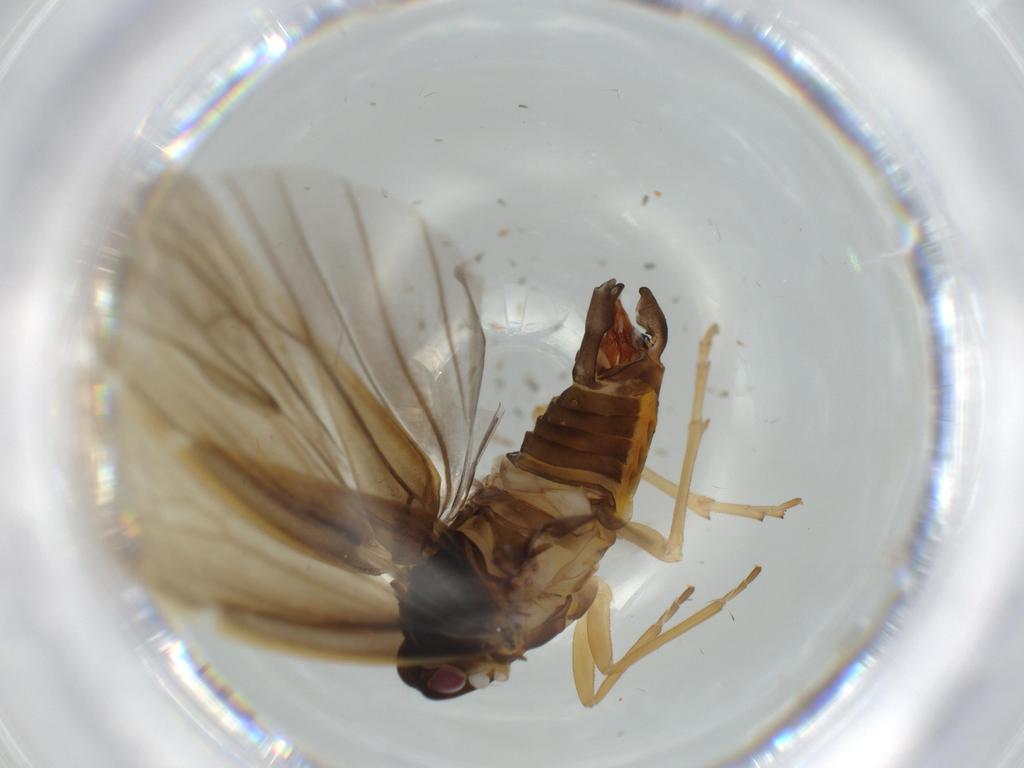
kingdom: Animalia
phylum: Arthropoda
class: Insecta
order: Hemiptera
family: Derbidae
